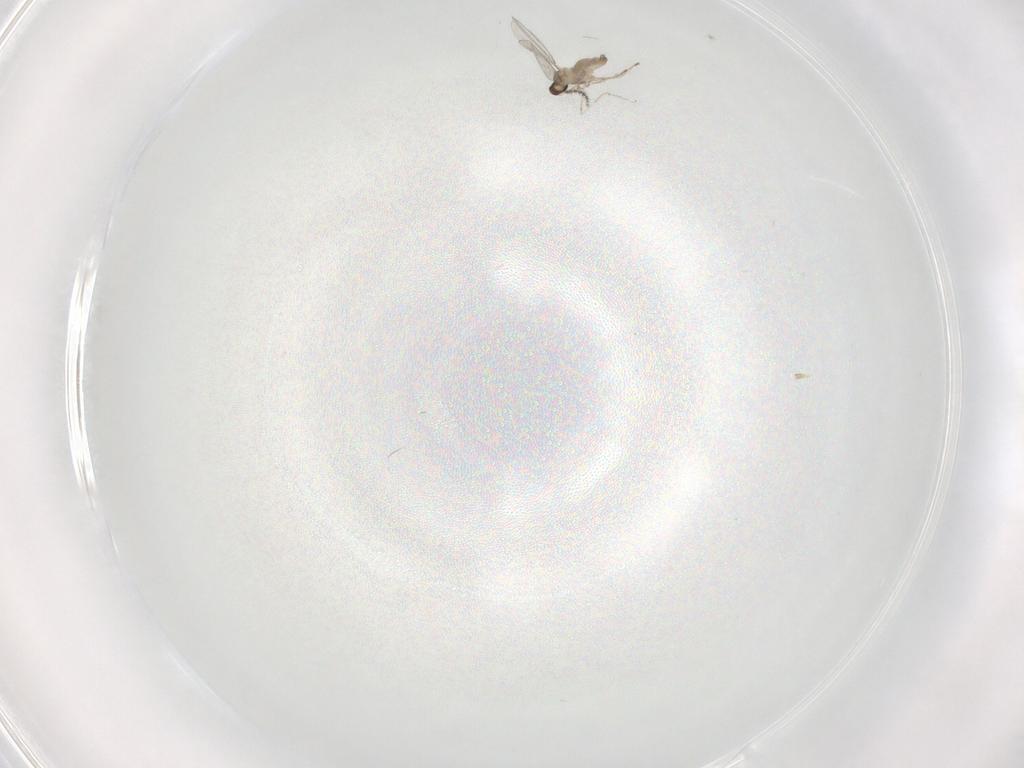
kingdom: Animalia
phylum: Arthropoda
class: Insecta
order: Diptera
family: Cecidomyiidae
